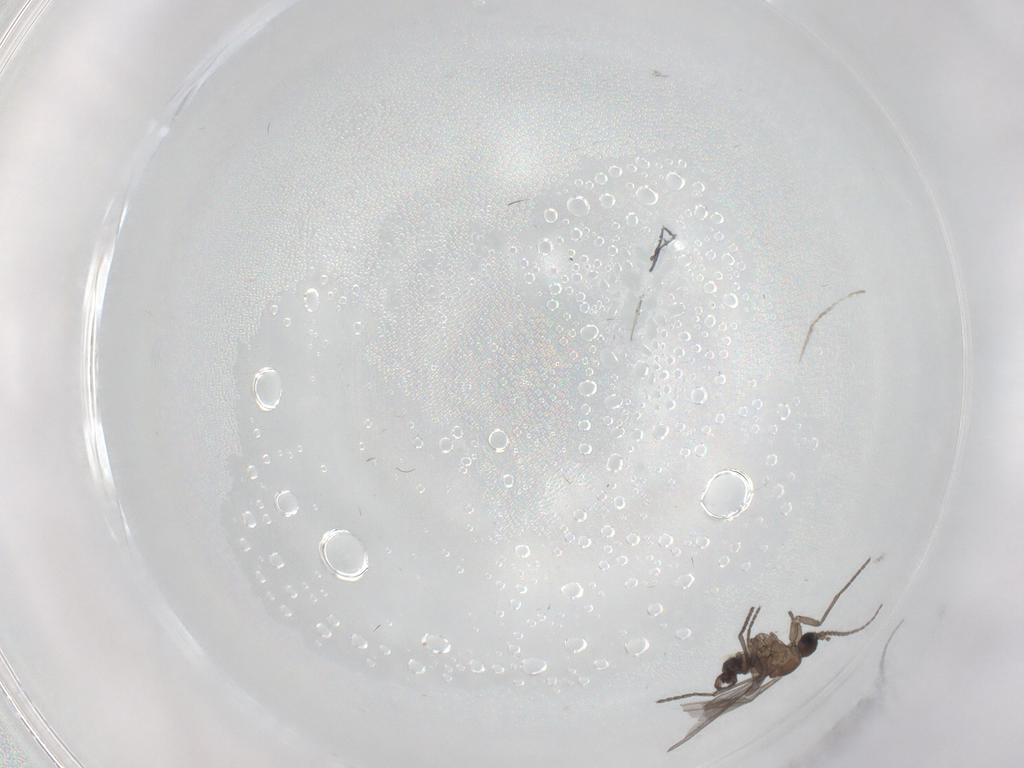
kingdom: Animalia
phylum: Arthropoda
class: Insecta
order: Diptera
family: Sciaridae
